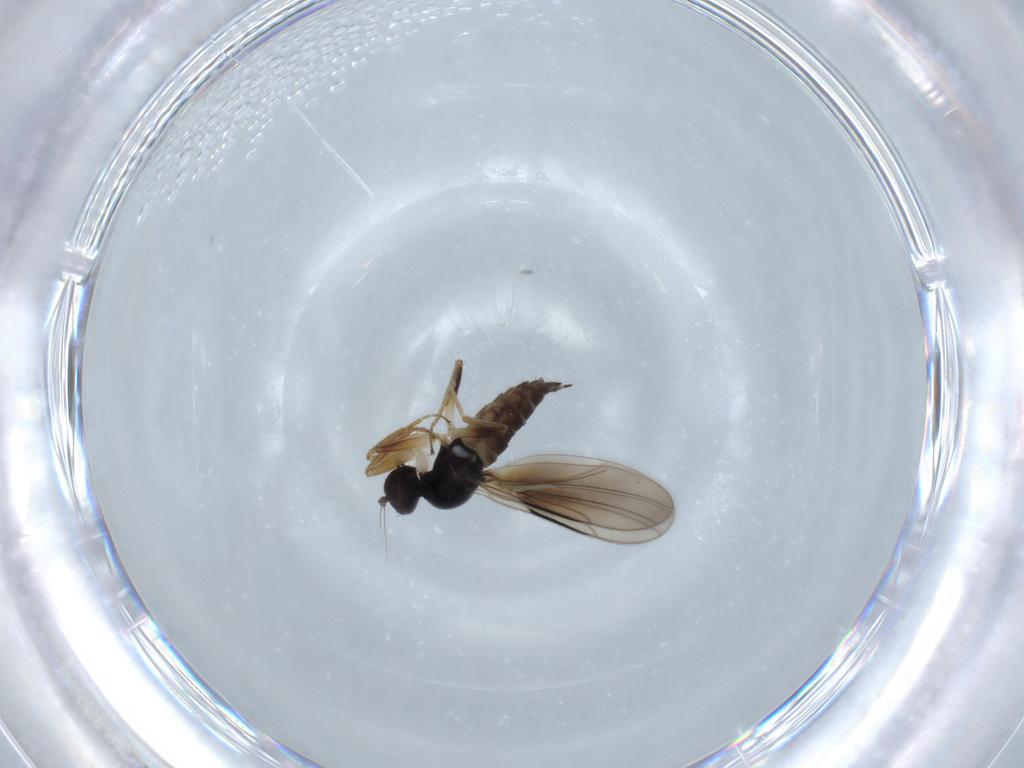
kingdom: Animalia
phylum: Arthropoda
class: Insecta
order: Diptera
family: Hybotidae
